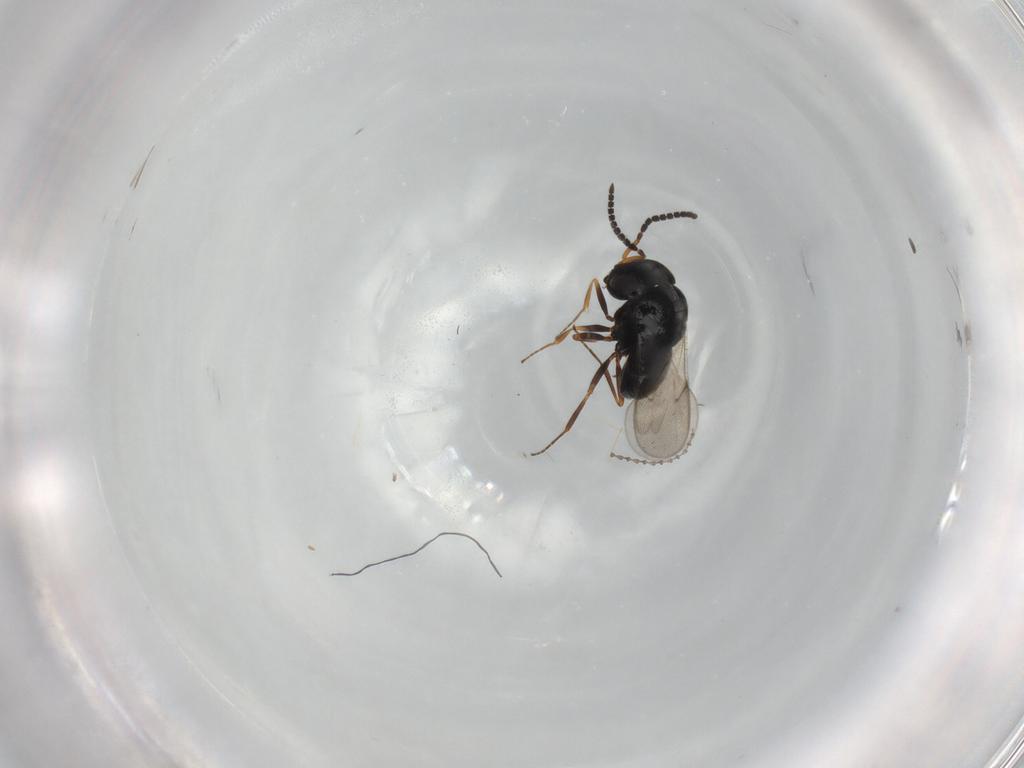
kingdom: Animalia
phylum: Arthropoda
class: Insecta
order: Hymenoptera
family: Scelionidae
